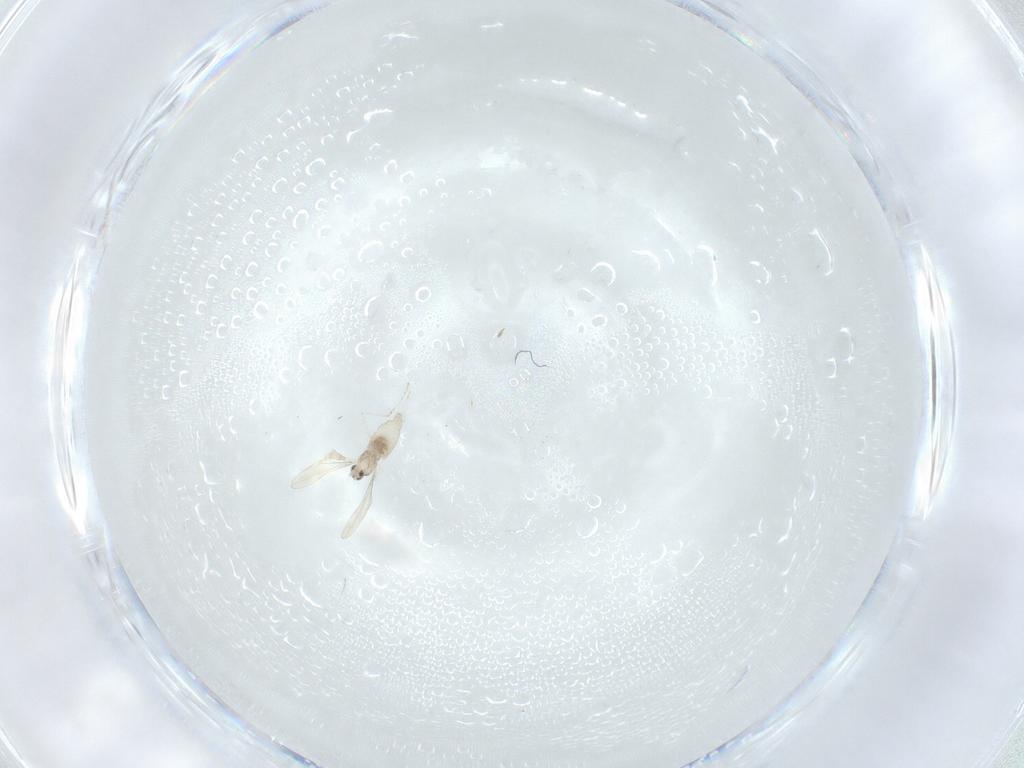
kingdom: Animalia
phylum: Arthropoda
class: Insecta
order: Diptera
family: Cecidomyiidae
